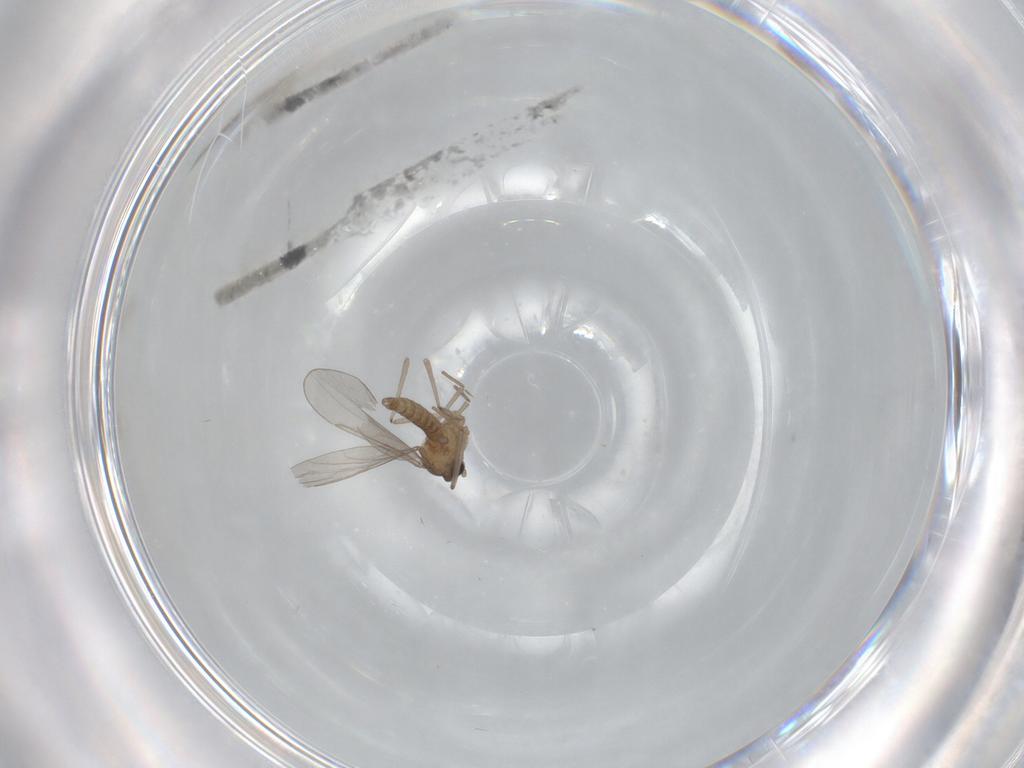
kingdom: Animalia
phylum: Arthropoda
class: Insecta
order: Diptera
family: Cecidomyiidae
